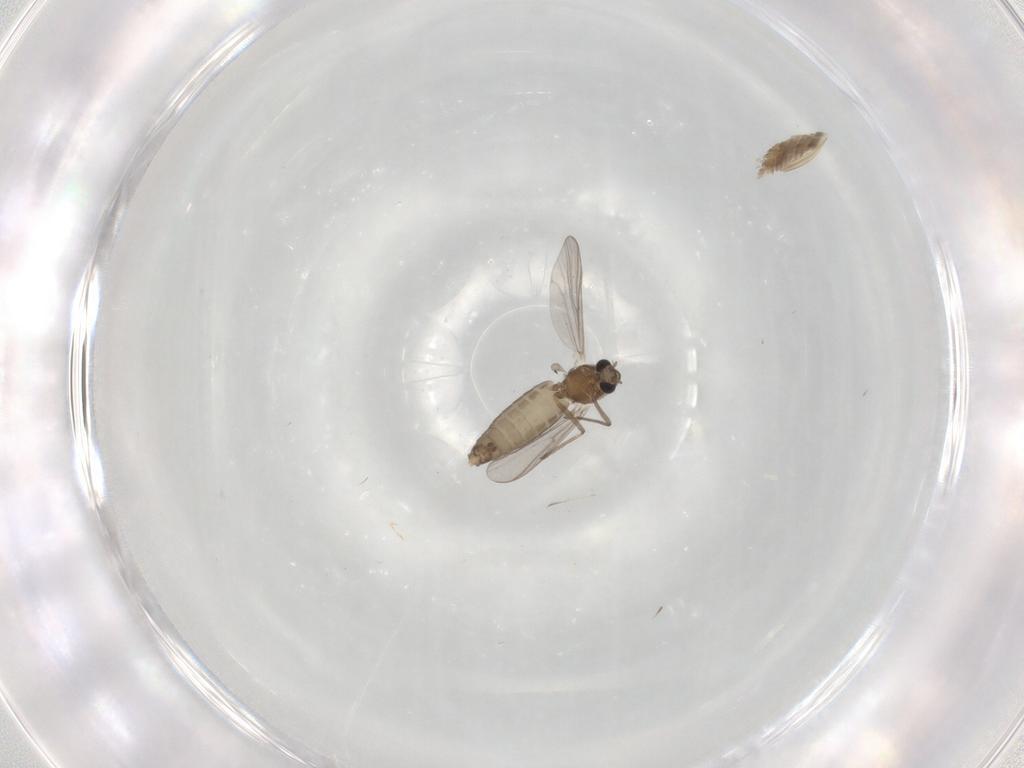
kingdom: Animalia
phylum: Arthropoda
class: Insecta
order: Diptera
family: Chironomidae
